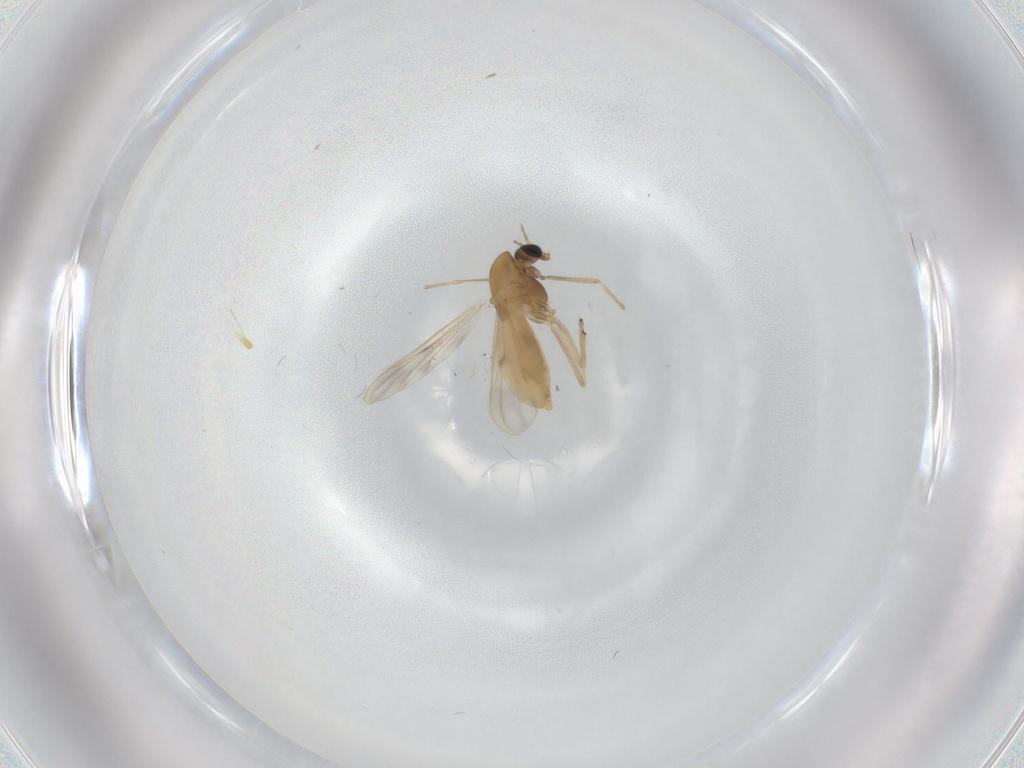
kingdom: Animalia
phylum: Arthropoda
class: Insecta
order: Diptera
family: Chironomidae
